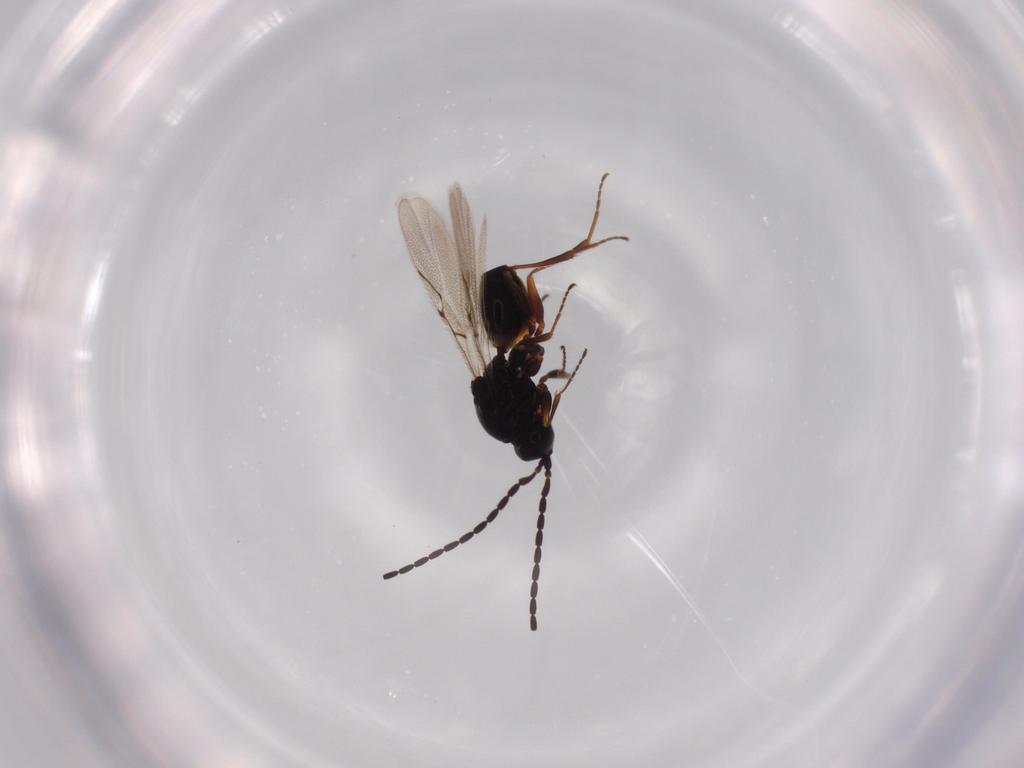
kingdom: Animalia
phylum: Arthropoda
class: Insecta
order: Hymenoptera
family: Figitidae
